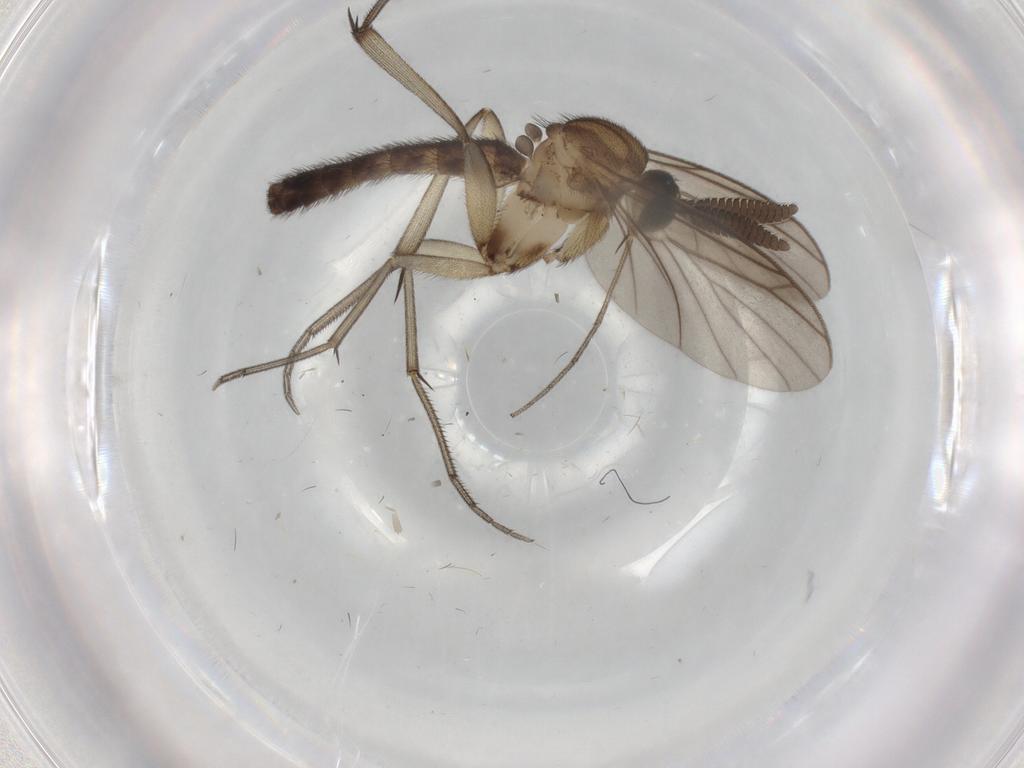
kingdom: Animalia
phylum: Arthropoda
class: Insecta
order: Diptera
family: Keroplatidae
